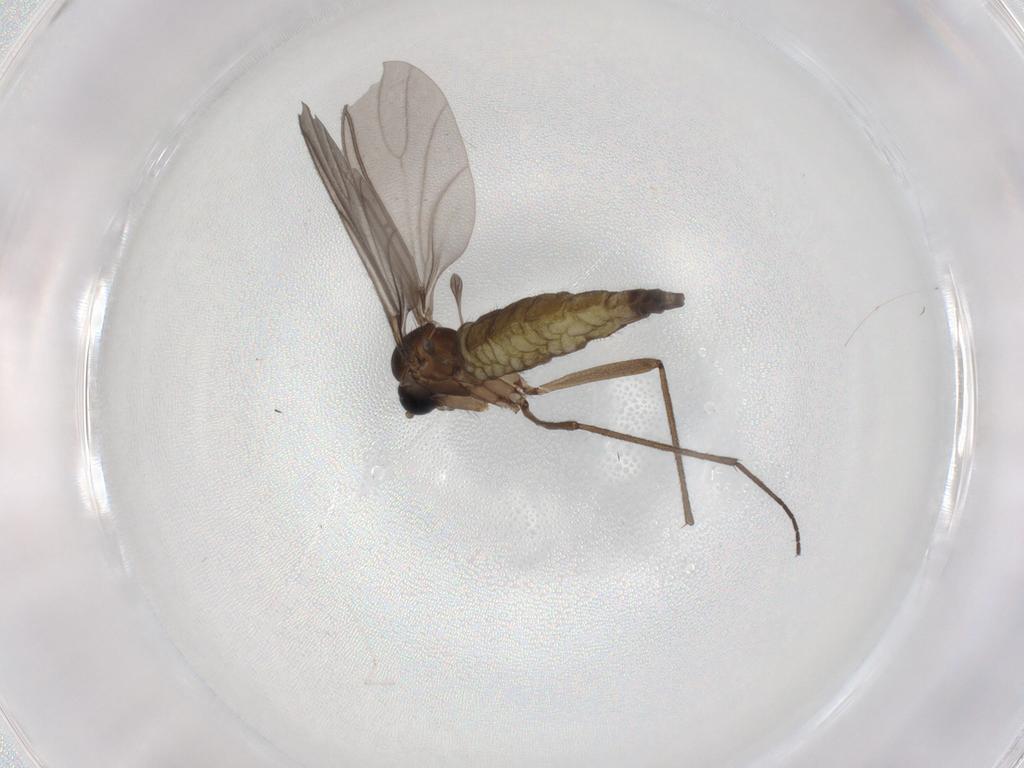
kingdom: Animalia
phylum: Arthropoda
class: Insecta
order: Diptera
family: Sciaridae
